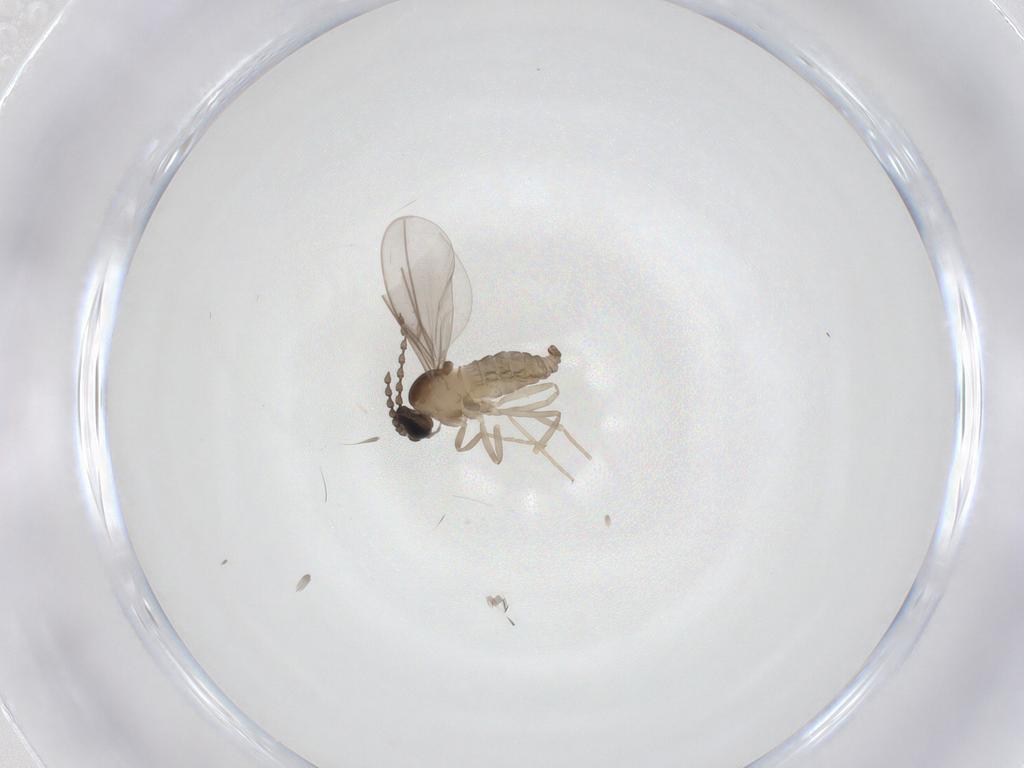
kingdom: Animalia
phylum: Arthropoda
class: Insecta
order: Diptera
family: Cecidomyiidae
